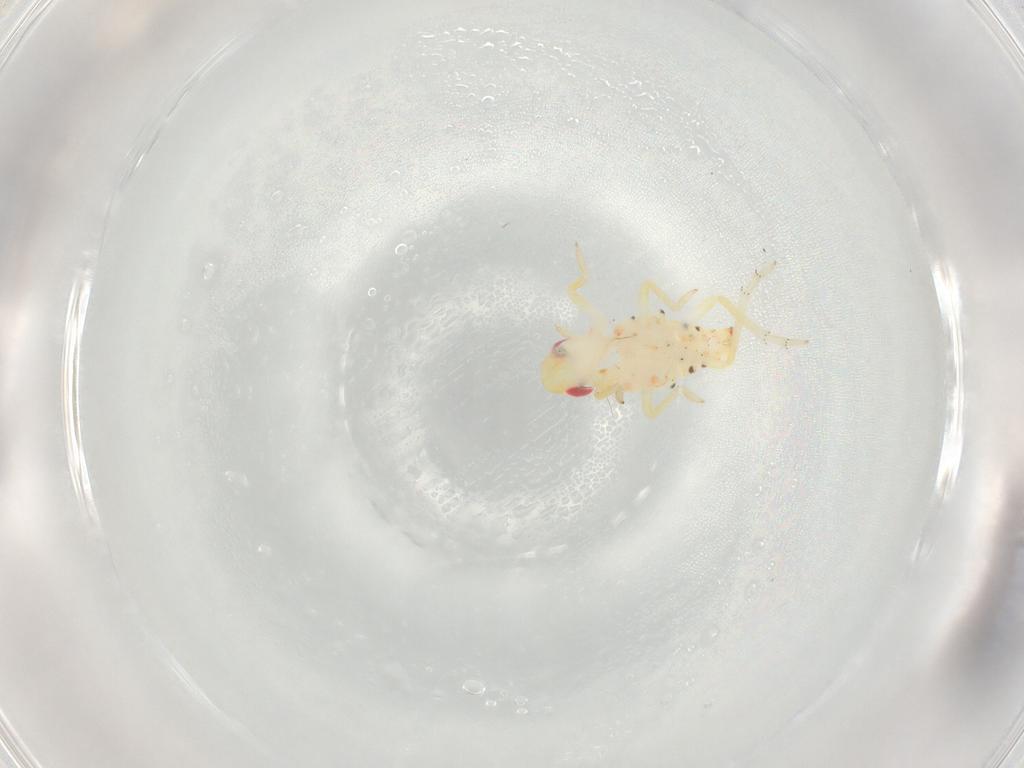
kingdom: Animalia
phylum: Arthropoda
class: Insecta
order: Hemiptera
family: Tropiduchidae
